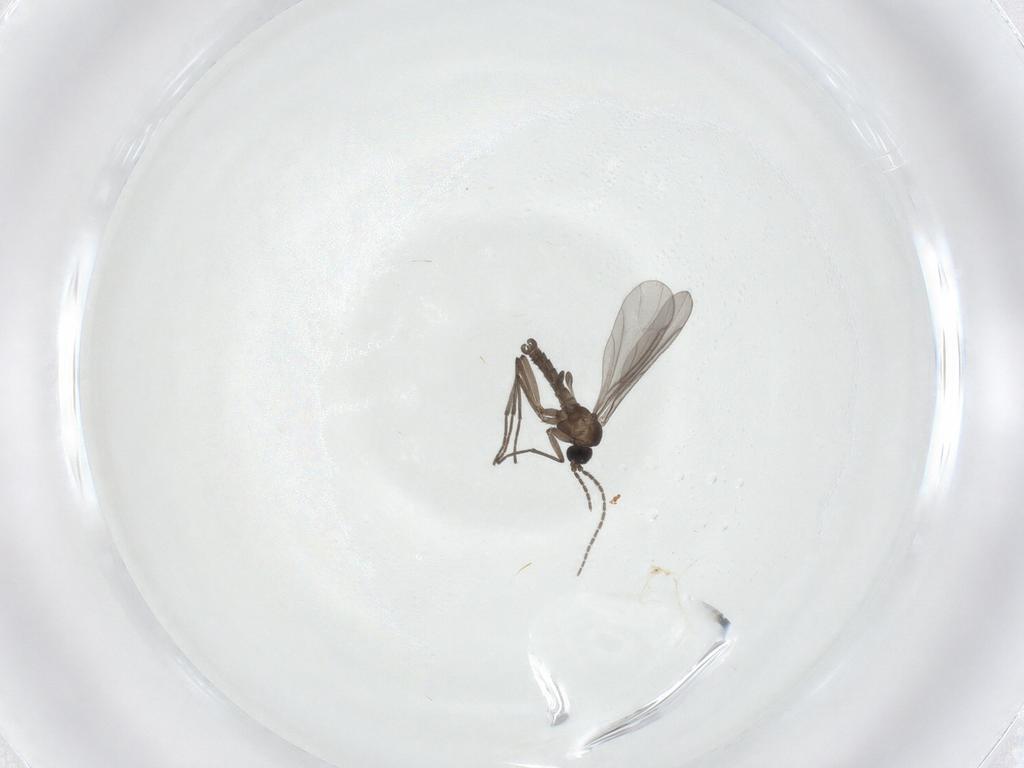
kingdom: Animalia
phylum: Arthropoda
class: Insecta
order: Diptera
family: Sciaridae
